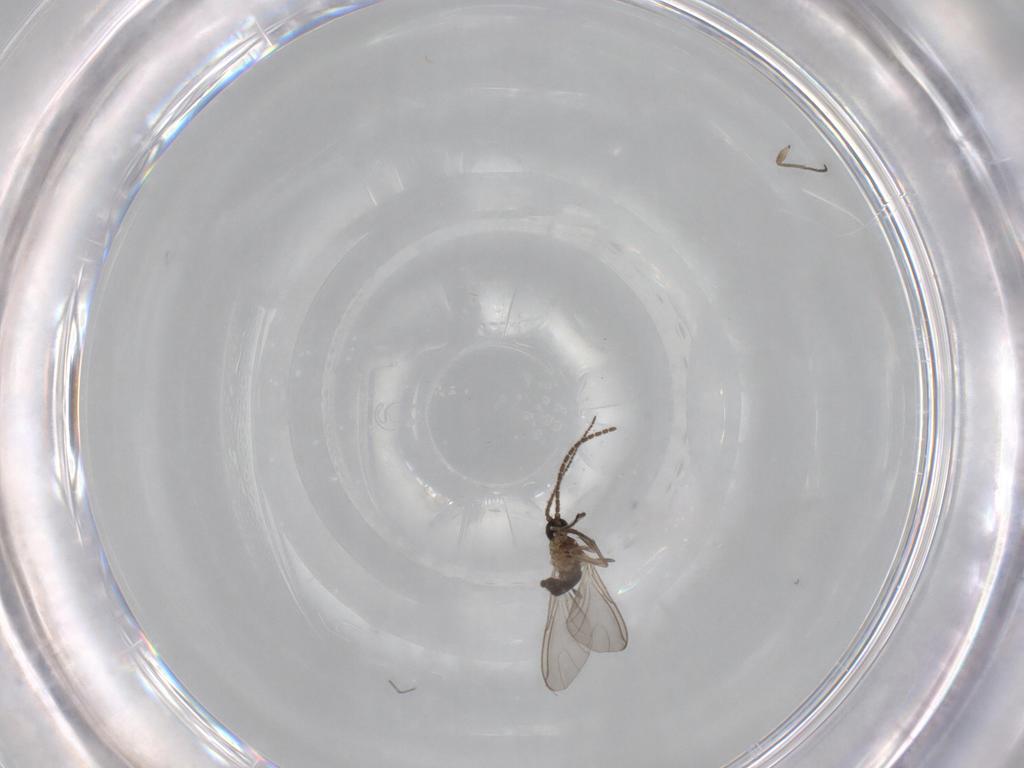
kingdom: Animalia
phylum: Arthropoda
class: Insecta
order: Diptera
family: Sciaridae
